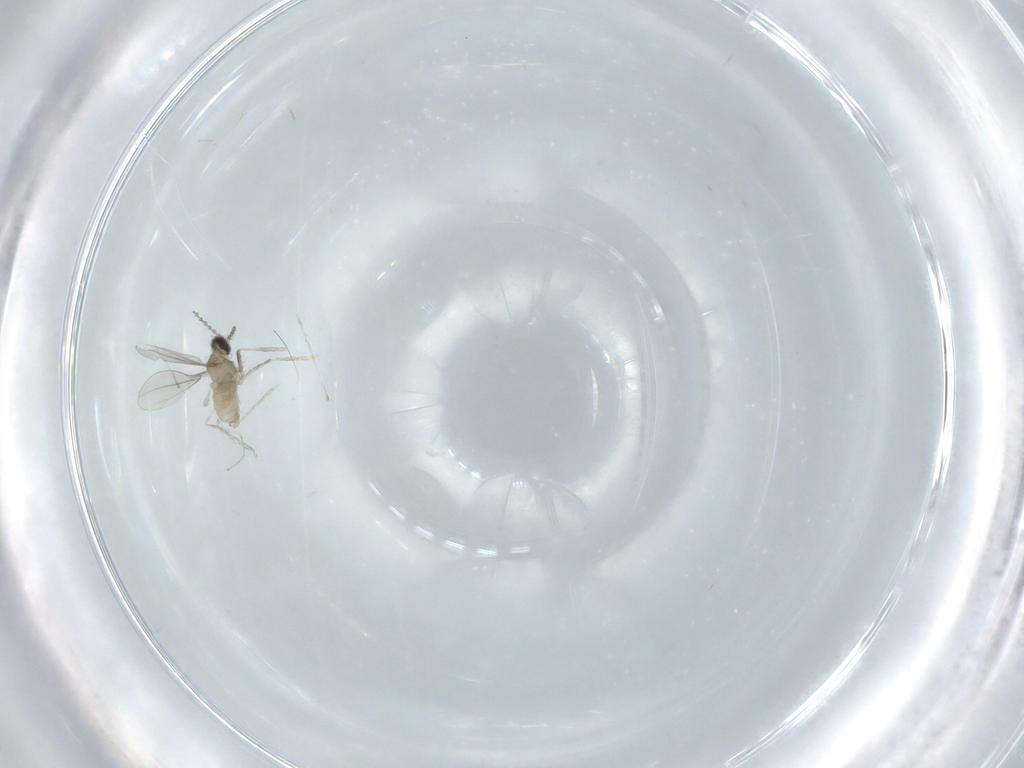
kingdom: Animalia
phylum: Arthropoda
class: Insecta
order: Diptera
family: Cecidomyiidae
